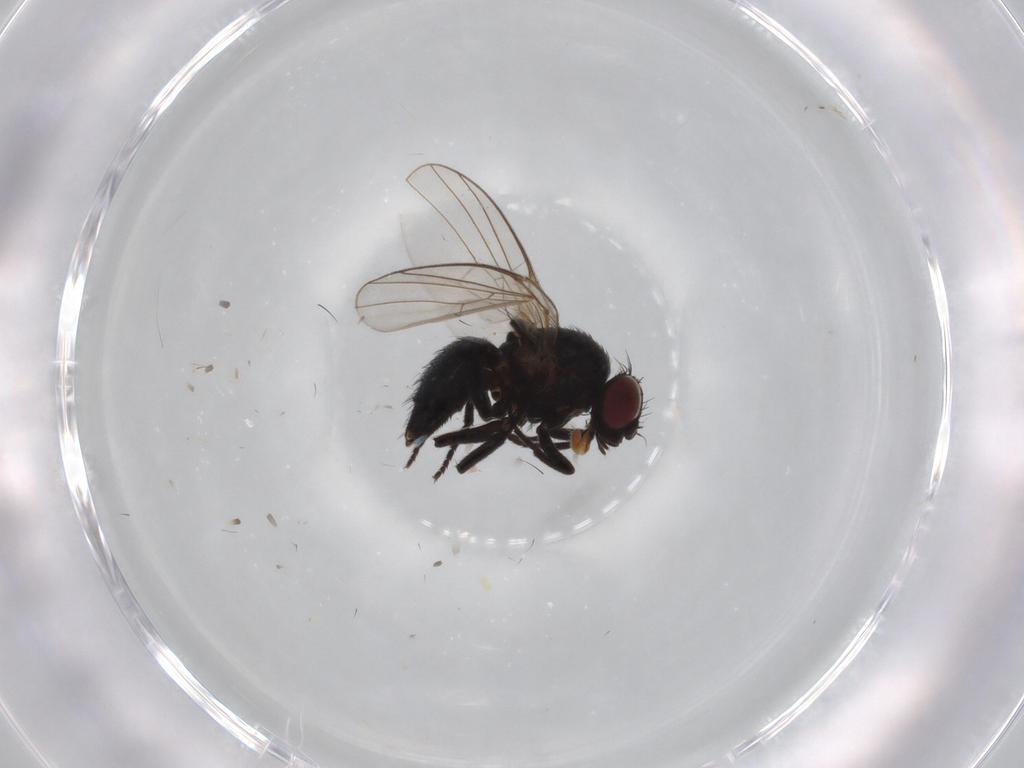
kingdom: Animalia
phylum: Arthropoda
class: Insecta
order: Diptera
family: Agromyzidae
